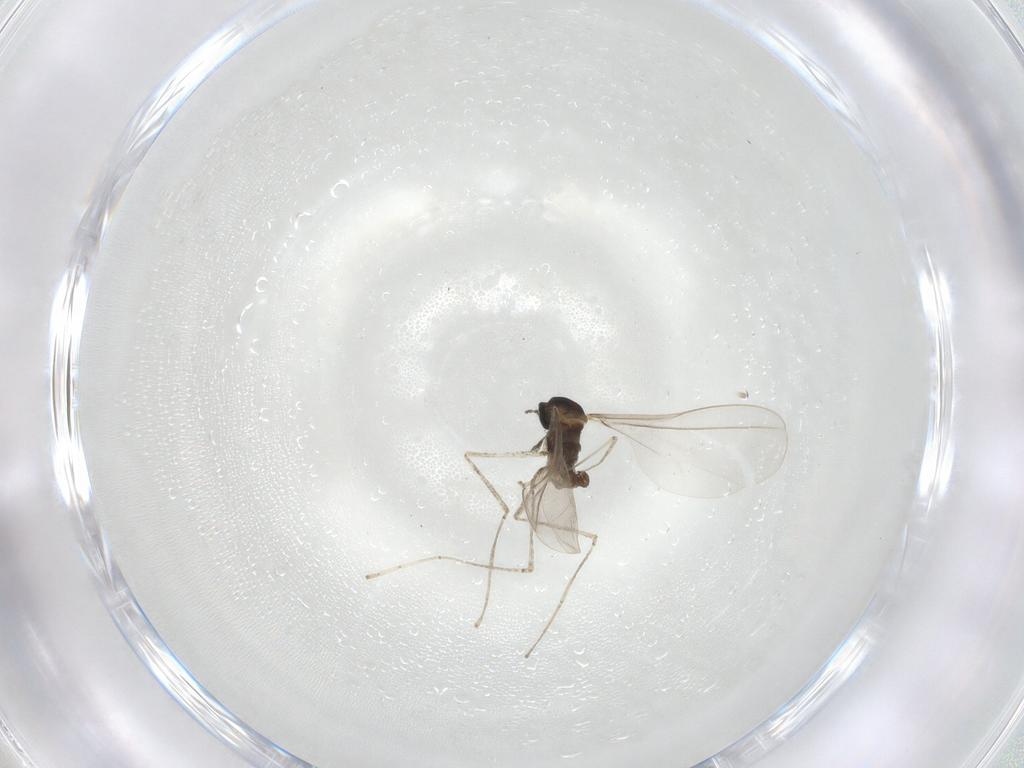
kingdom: Animalia
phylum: Arthropoda
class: Insecta
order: Diptera
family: Cecidomyiidae
